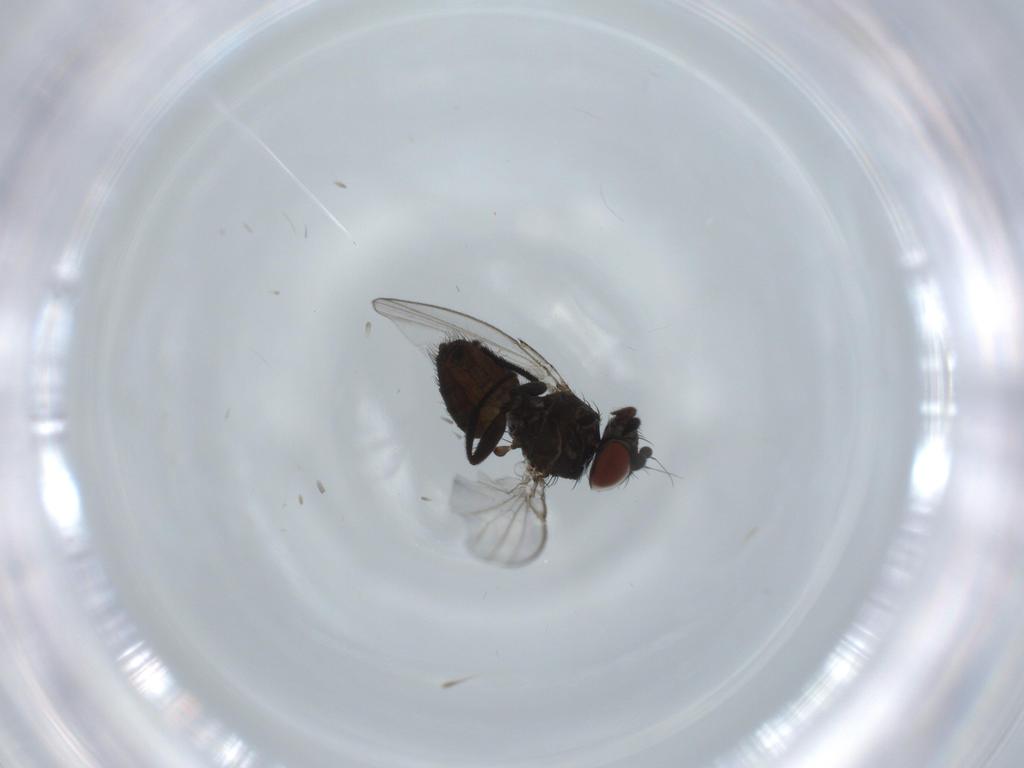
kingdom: Animalia
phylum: Arthropoda
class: Insecta
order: Diptera
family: Milichiidae
